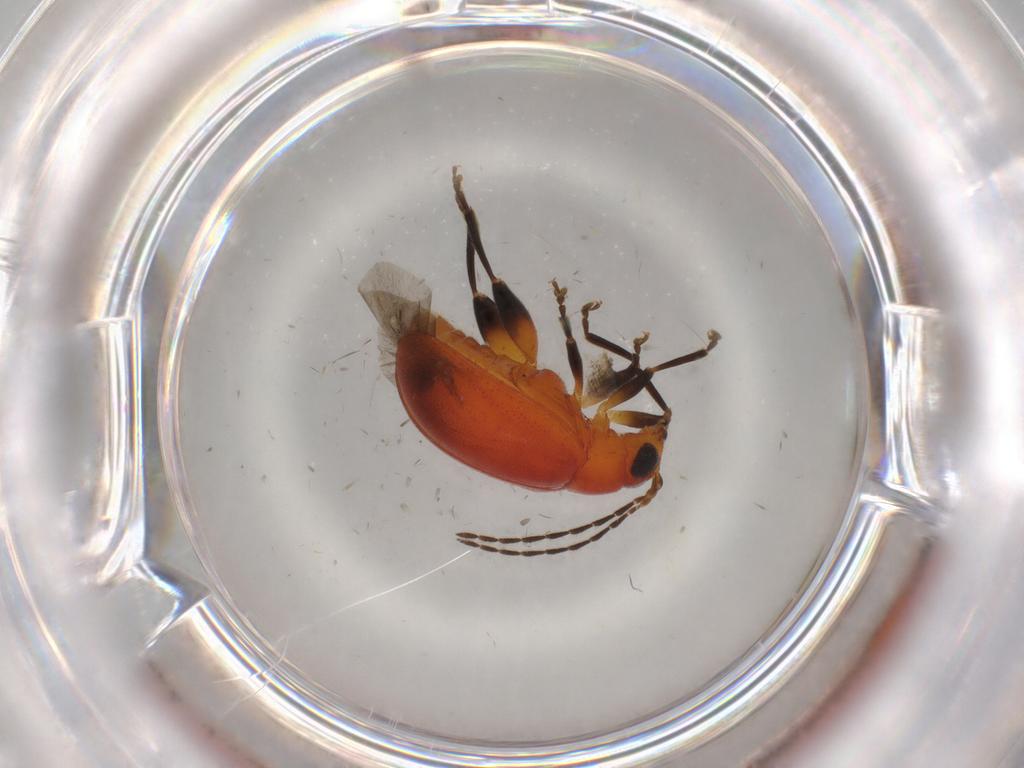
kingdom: Animalia
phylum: Arthropoda
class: Insecta
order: Coleoptera
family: Chrysomelidae
